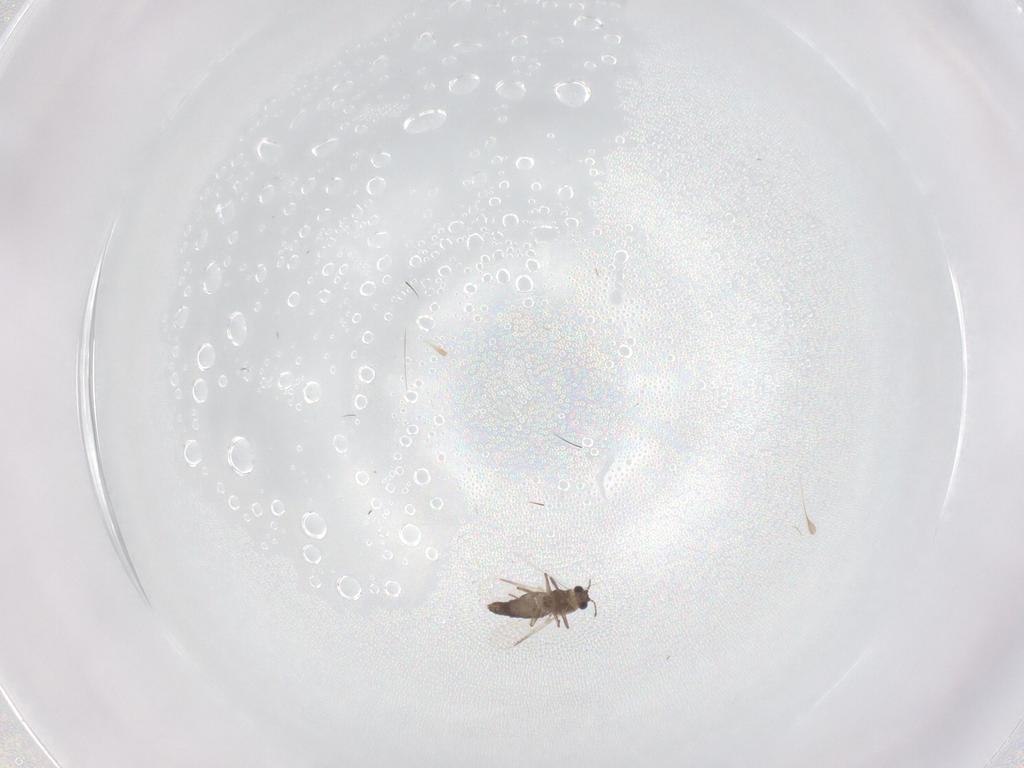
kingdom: Animalia
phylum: Arthropoda
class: Insecta
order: Diptera
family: Chironomidae
